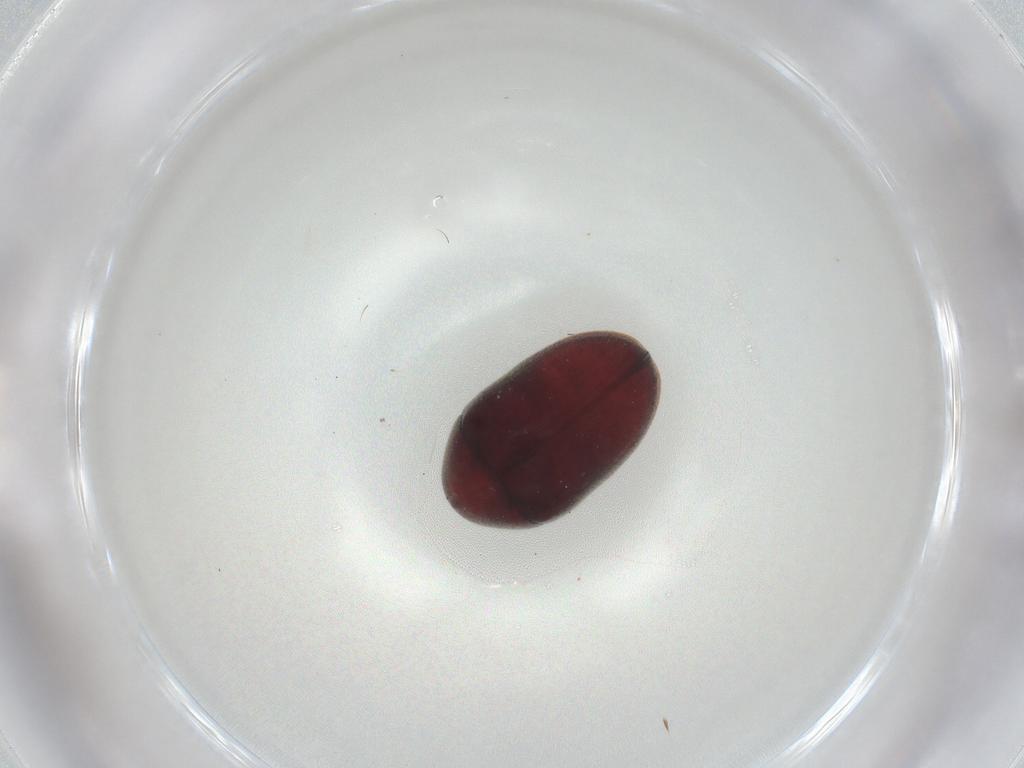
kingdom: Animalia
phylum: Arthropoda
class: Insecta
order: Coleoptera
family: Ptinidae
